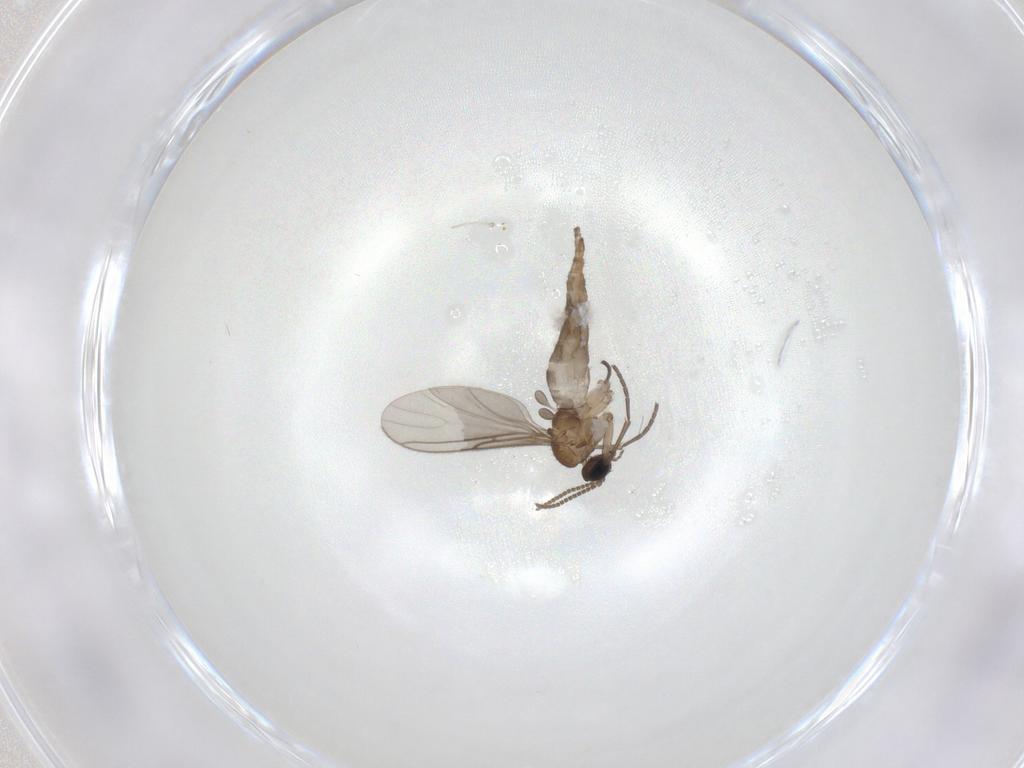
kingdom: Animalia
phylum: Arthropoda
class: Insecta
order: Diptera
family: Sciaridae
